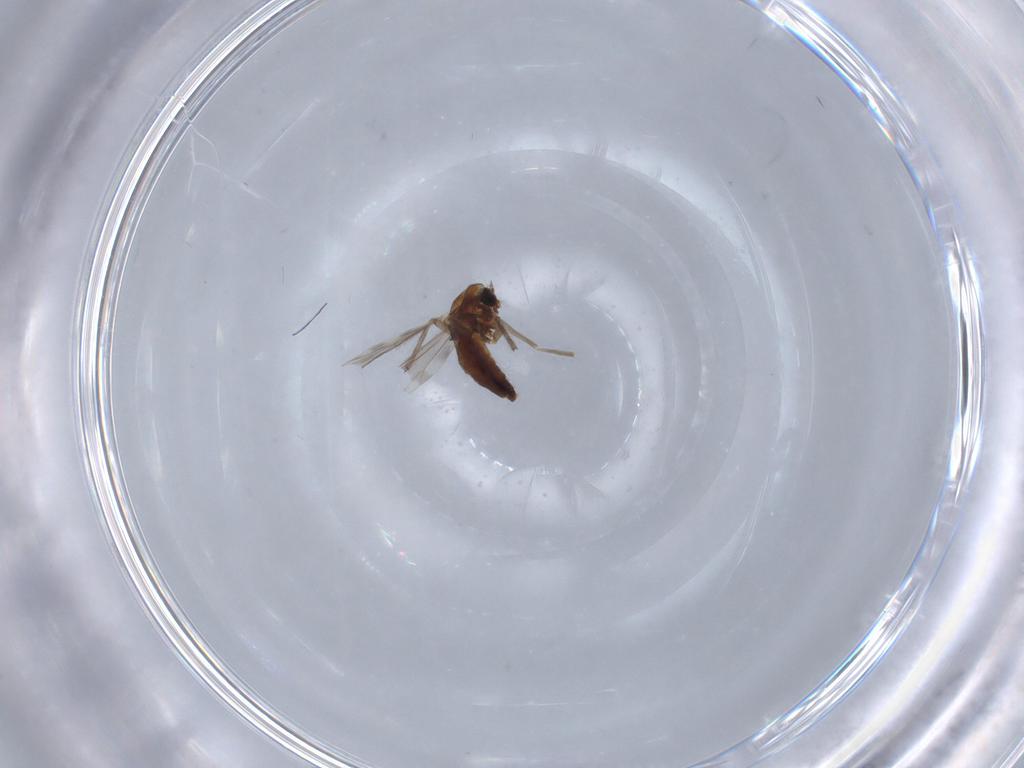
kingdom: Animalia
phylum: Arthropoda
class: Insecta
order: Diptera
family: Chironomidae
